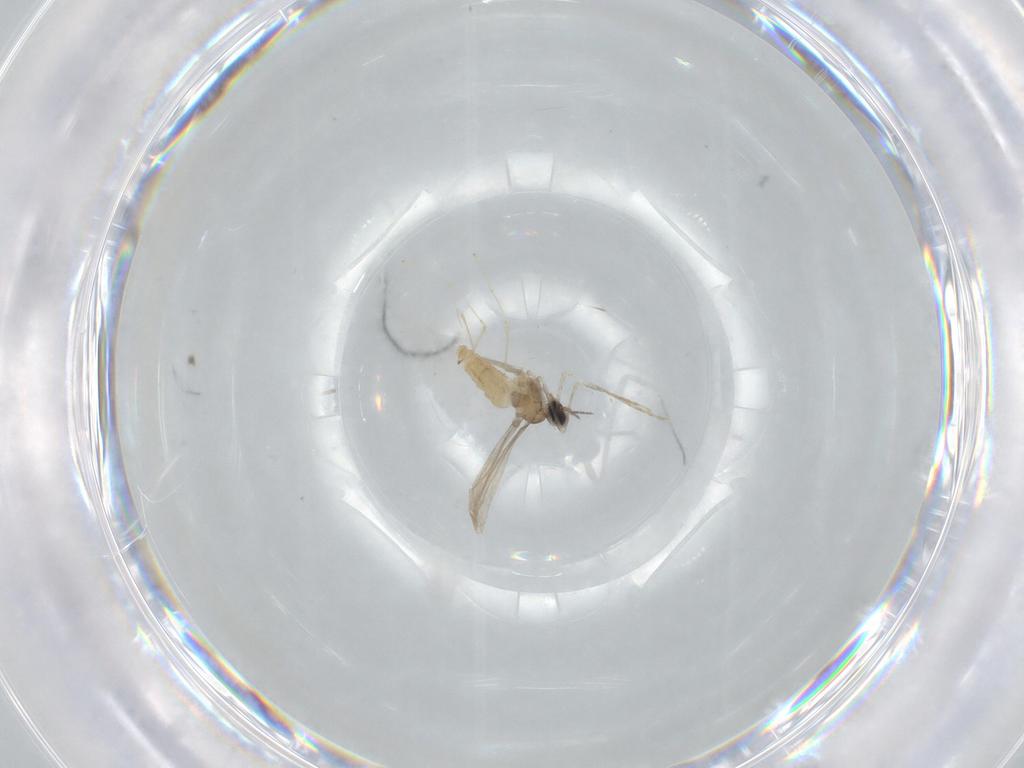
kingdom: Animalia
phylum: Arthropoda
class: Insecta
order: Diptera
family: Cecidomyiidae
